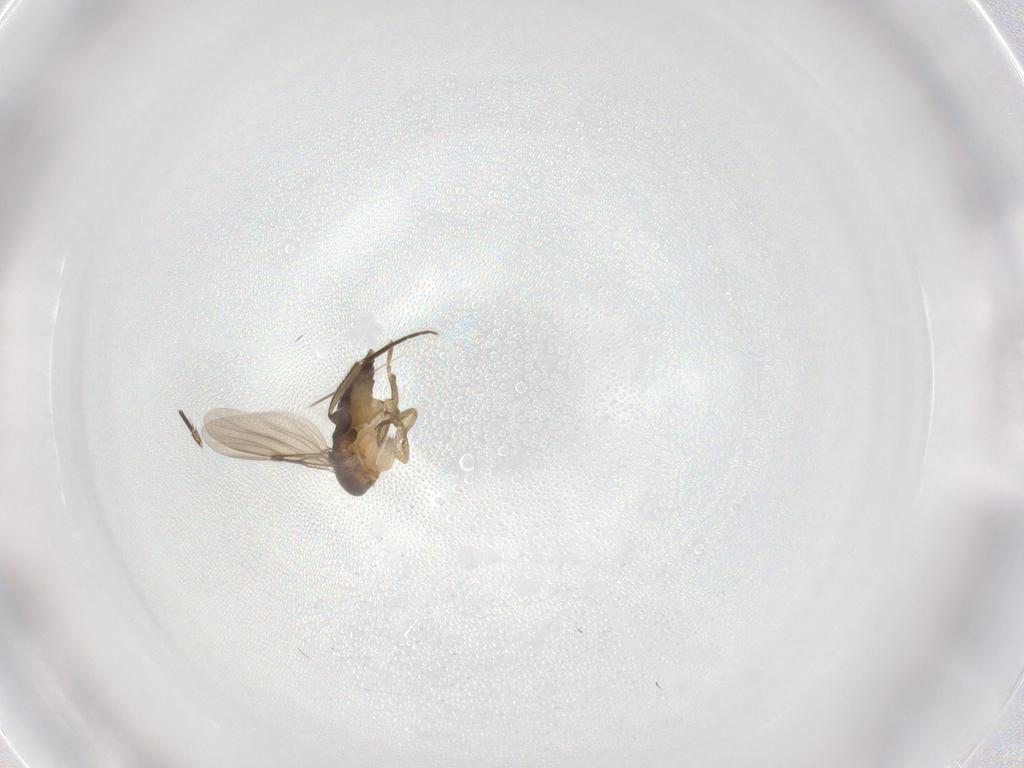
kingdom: Animalia
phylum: Arthropoda
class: Insecta
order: Diptera
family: Phoridae
